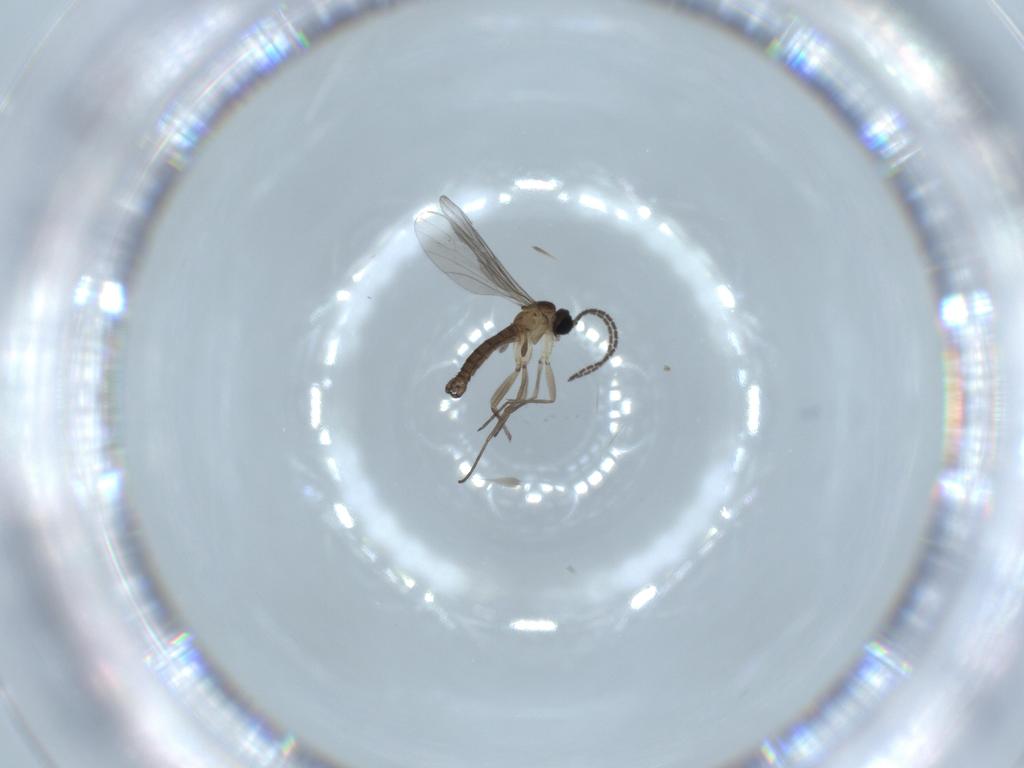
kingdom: Animalia
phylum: Arthropoda
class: Insecta
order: Diptera
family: Sciaridae
